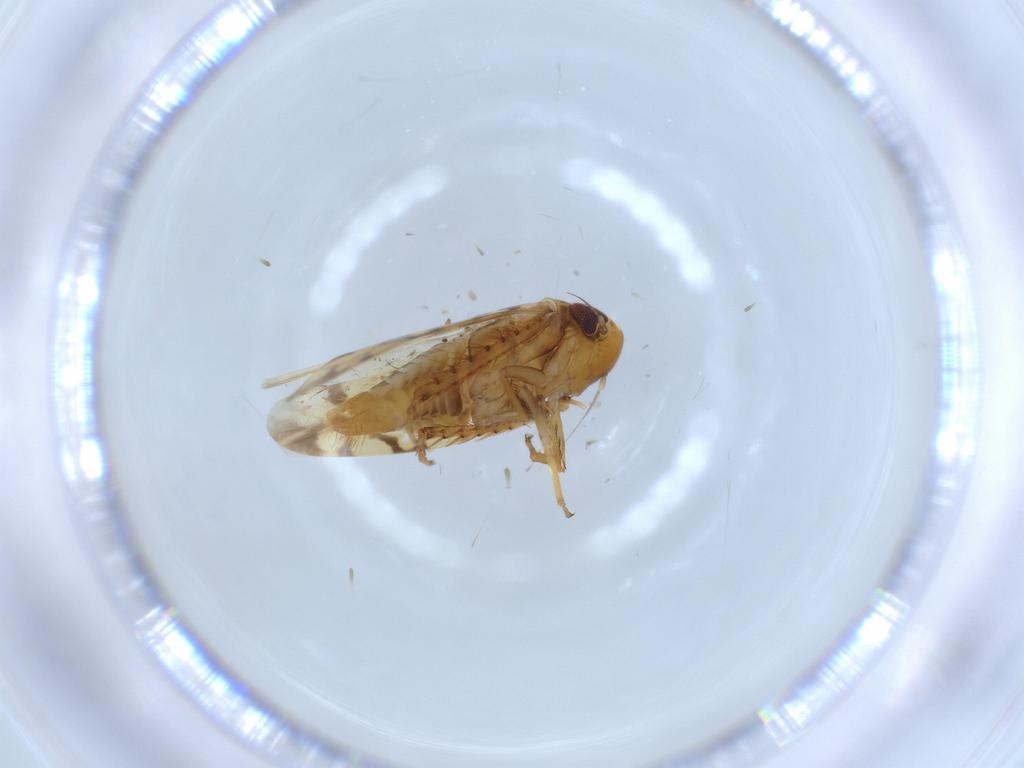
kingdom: Animalia
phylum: Arthropoda
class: Insecta
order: Hemiptera
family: Cicadellidae
